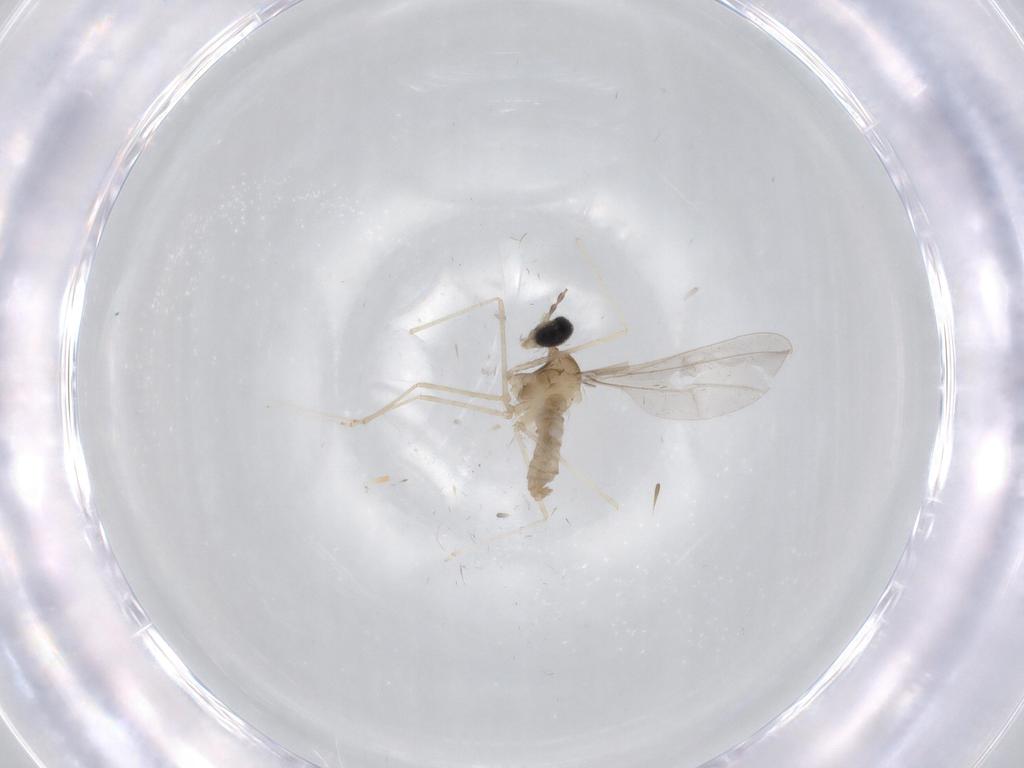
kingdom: Animalia
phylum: Arthropoda
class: Insecta
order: Diptera
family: Cecidomyiidae
